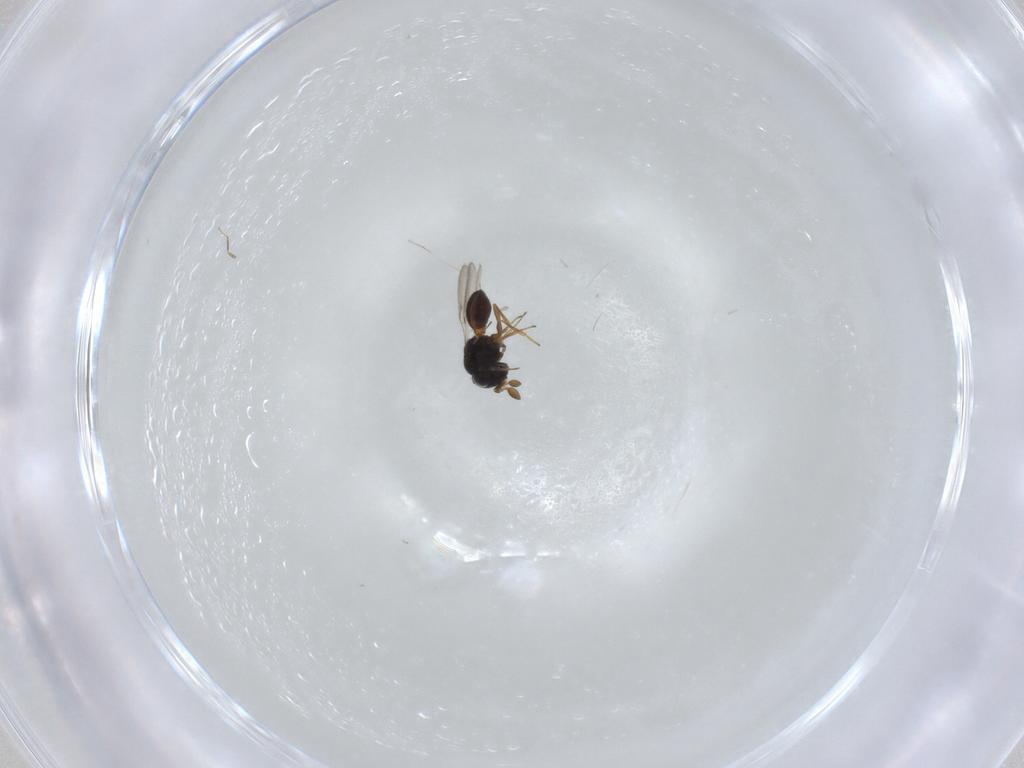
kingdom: Animalia
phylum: Arthropoda
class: Insecta
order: Hymenoptera
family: Scelionidae
